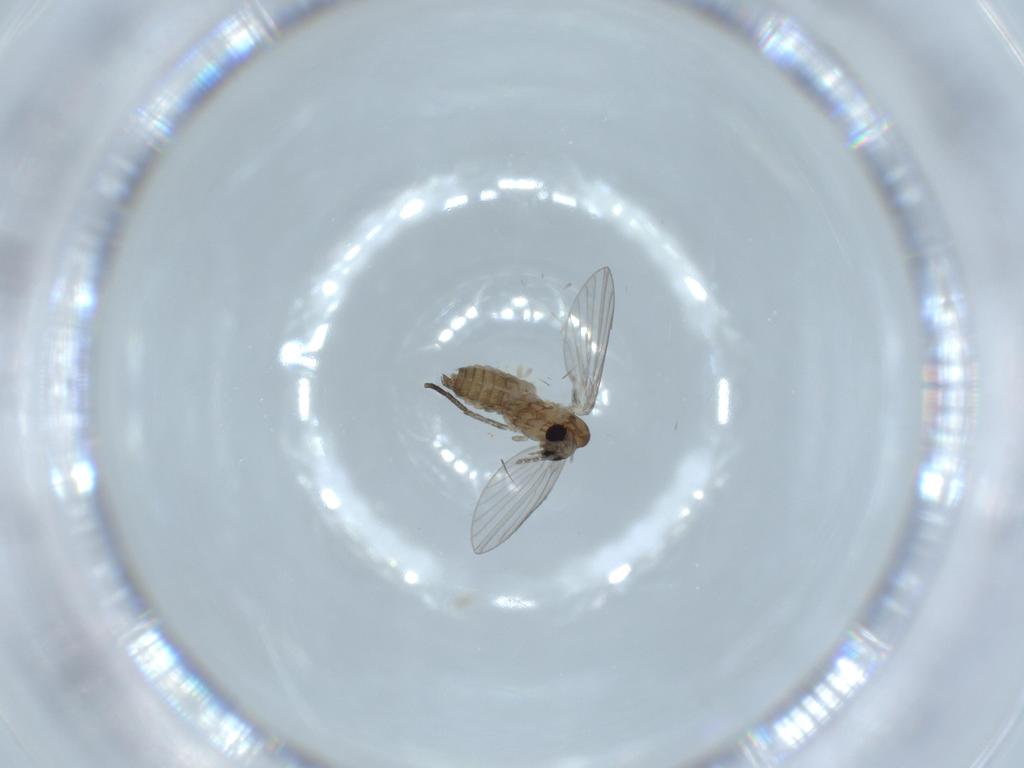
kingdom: Animalia
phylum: Arthropoda
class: Insecta
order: Diptera
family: Psychodidae
